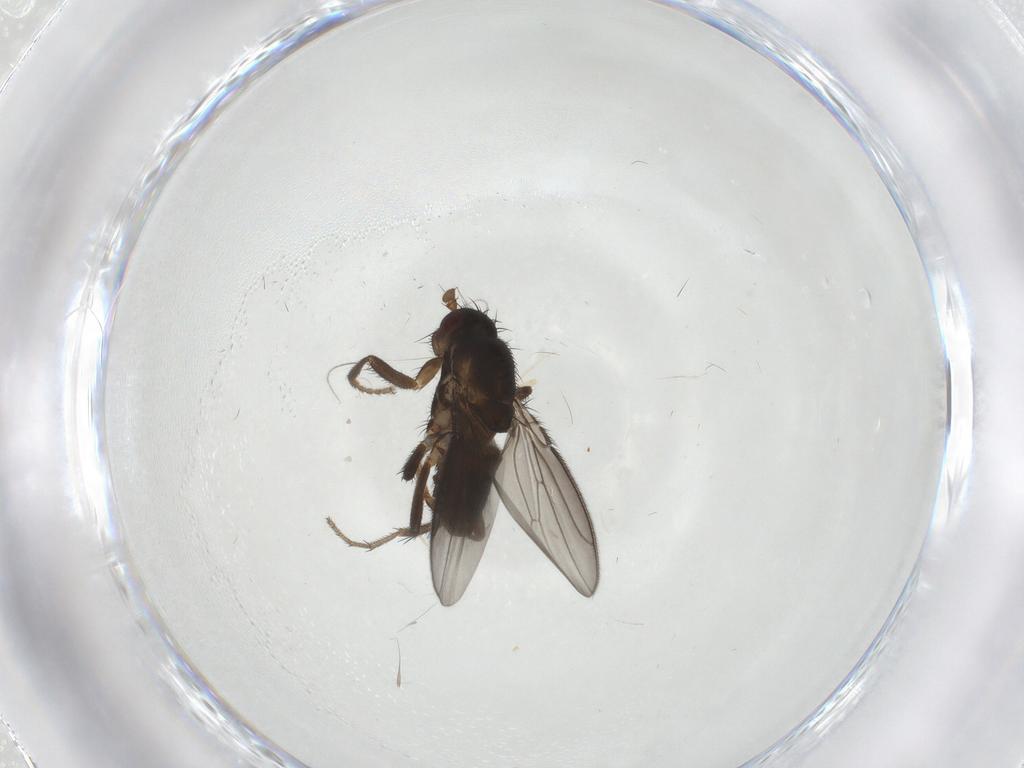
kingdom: Animalia
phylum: Arthropoda
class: Insecta
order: Diptera
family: Sphaeroceridae
